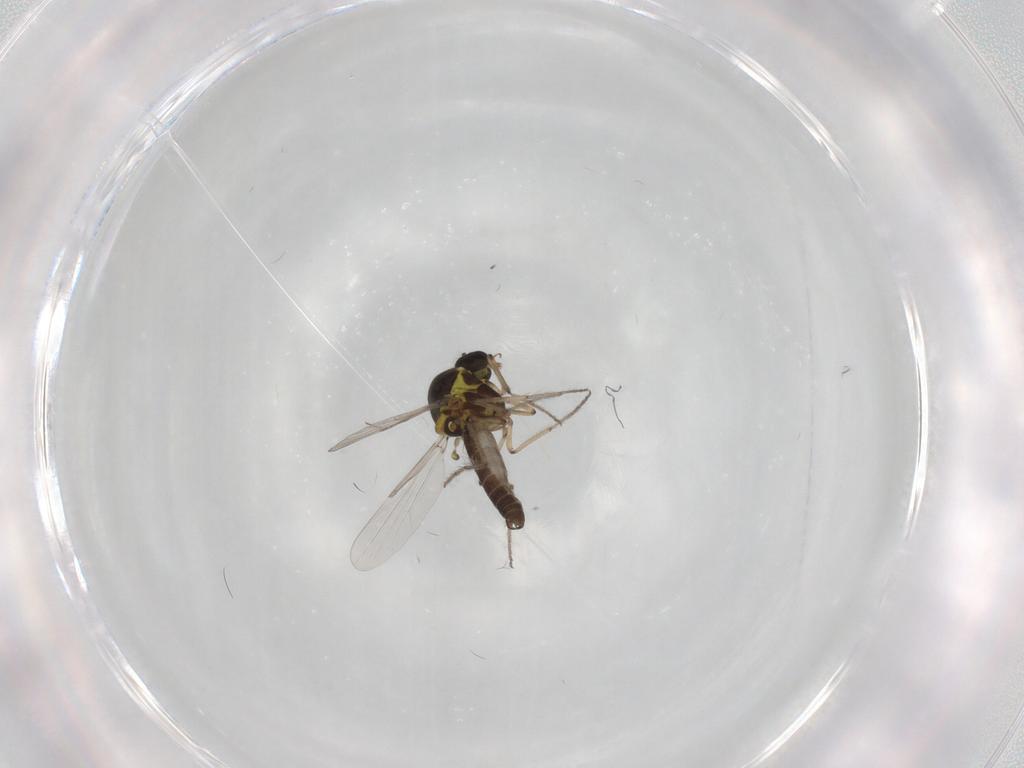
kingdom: Animalia
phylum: Arthropoda
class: Insecta
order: Diptera
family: Ceratopogonidae
